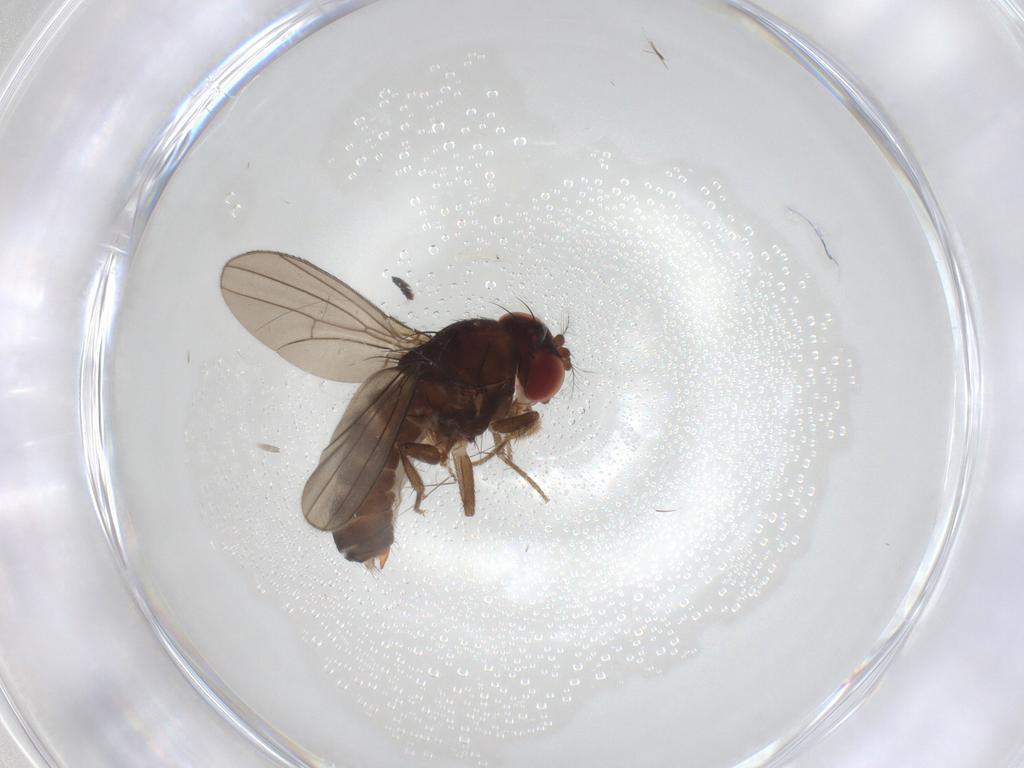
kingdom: Animalia
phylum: Arthropoda
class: Insecta
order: Diptera
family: Drosophilidae
